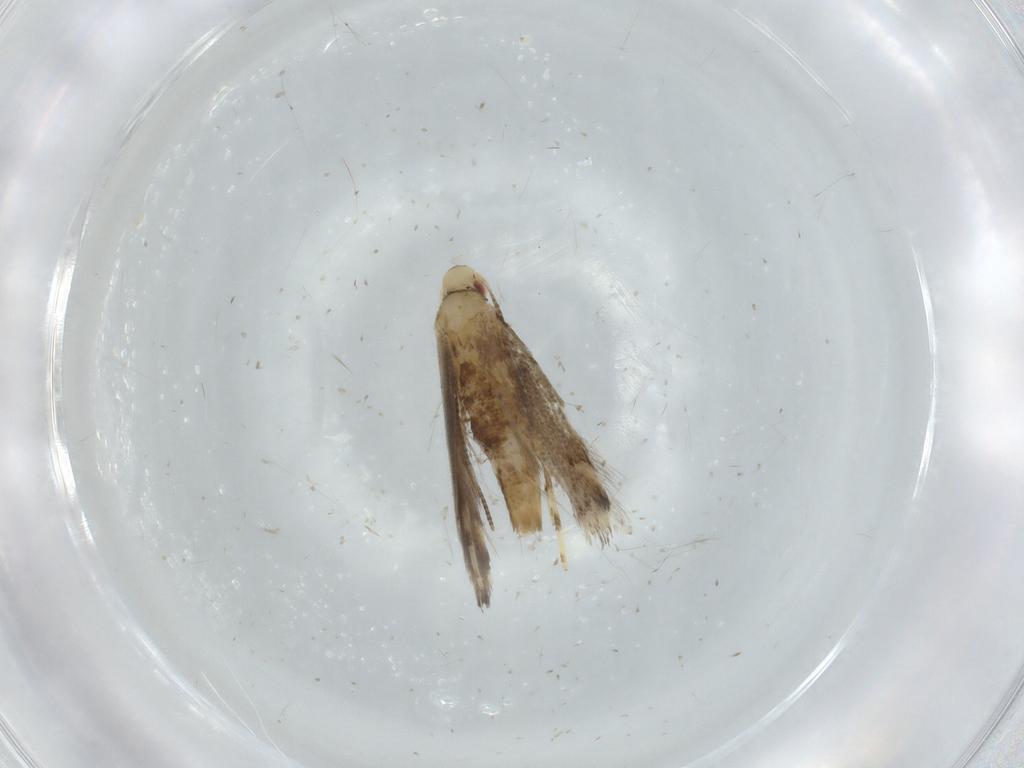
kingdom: Animalia
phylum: Arthropoda
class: Insecta
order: Lepidoptera
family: Gracillariidae
